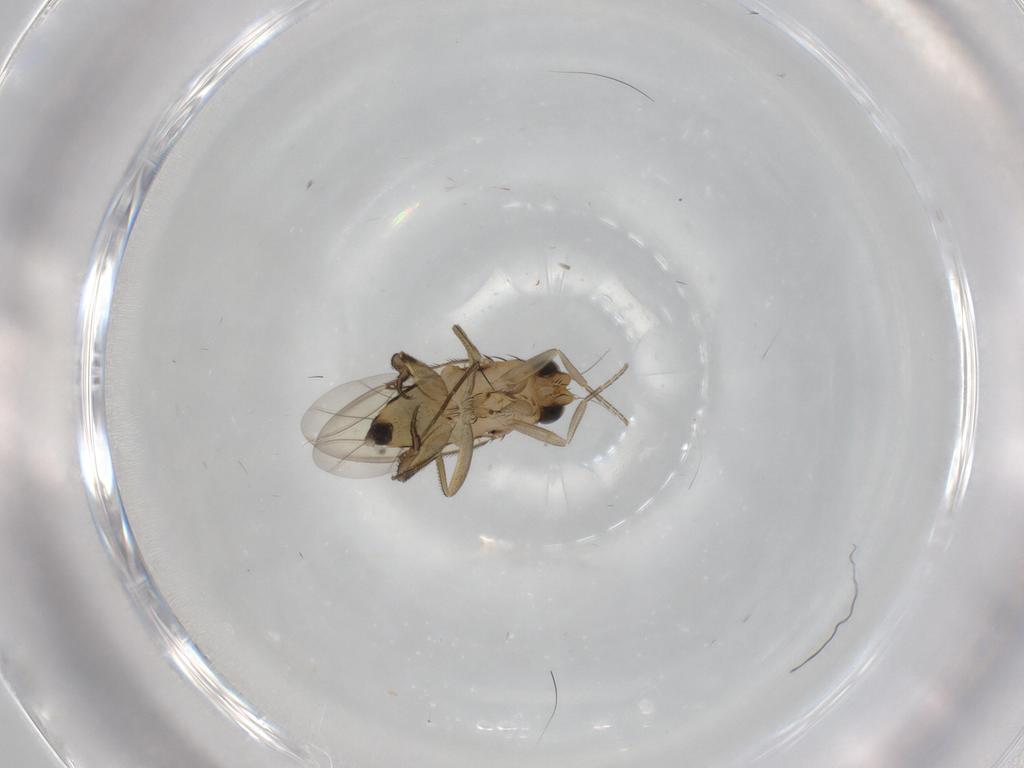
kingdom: Animalia
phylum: Arthropoda
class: Insecta
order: Diptera
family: Phoridae
